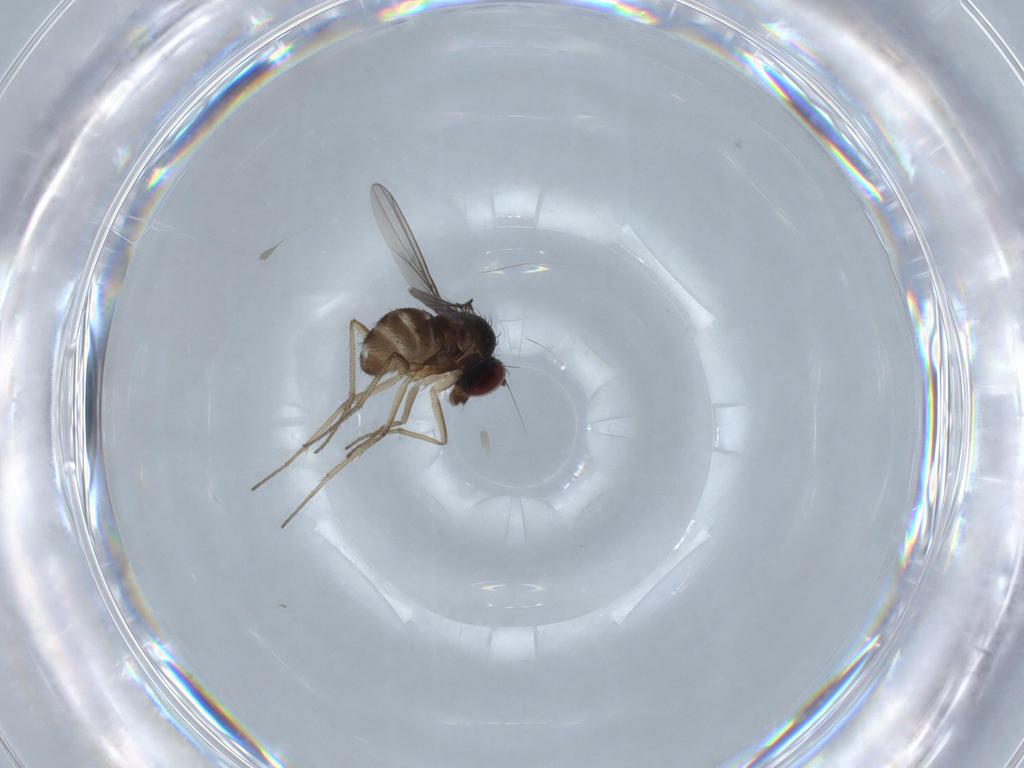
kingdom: Animalia
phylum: Arthropoda
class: Insecta
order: Diptera
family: Dolichopodidae
